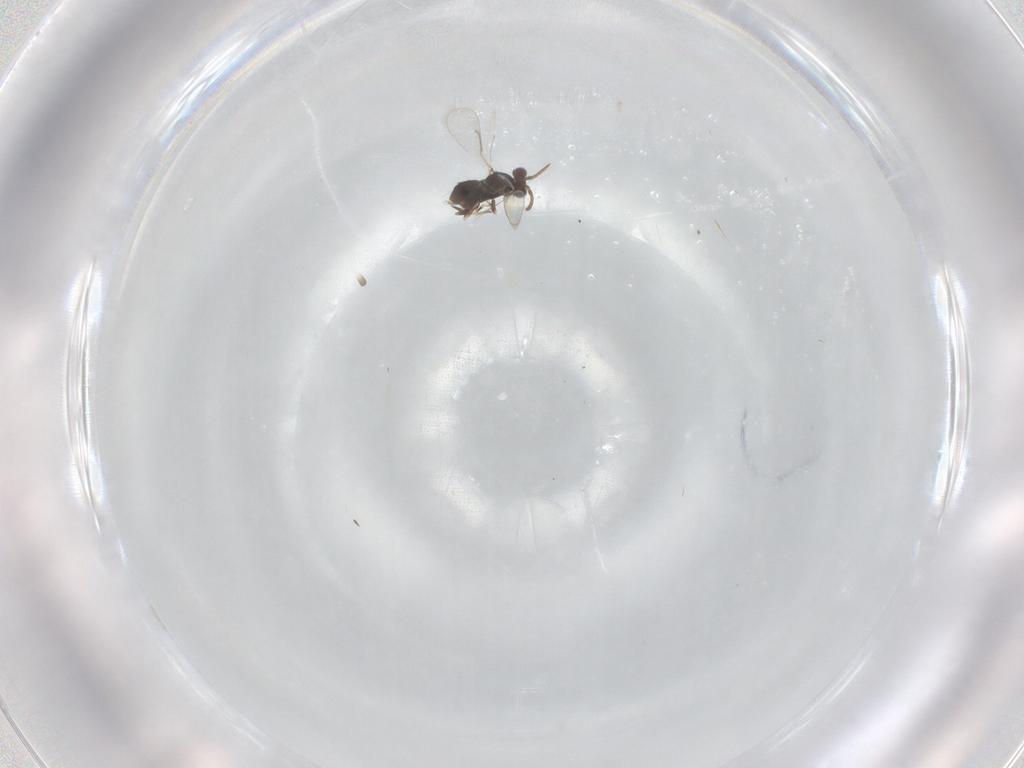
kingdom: Animalia
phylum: Arthropoda
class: Insecta
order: Hymenoptera
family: Aphelinidae
